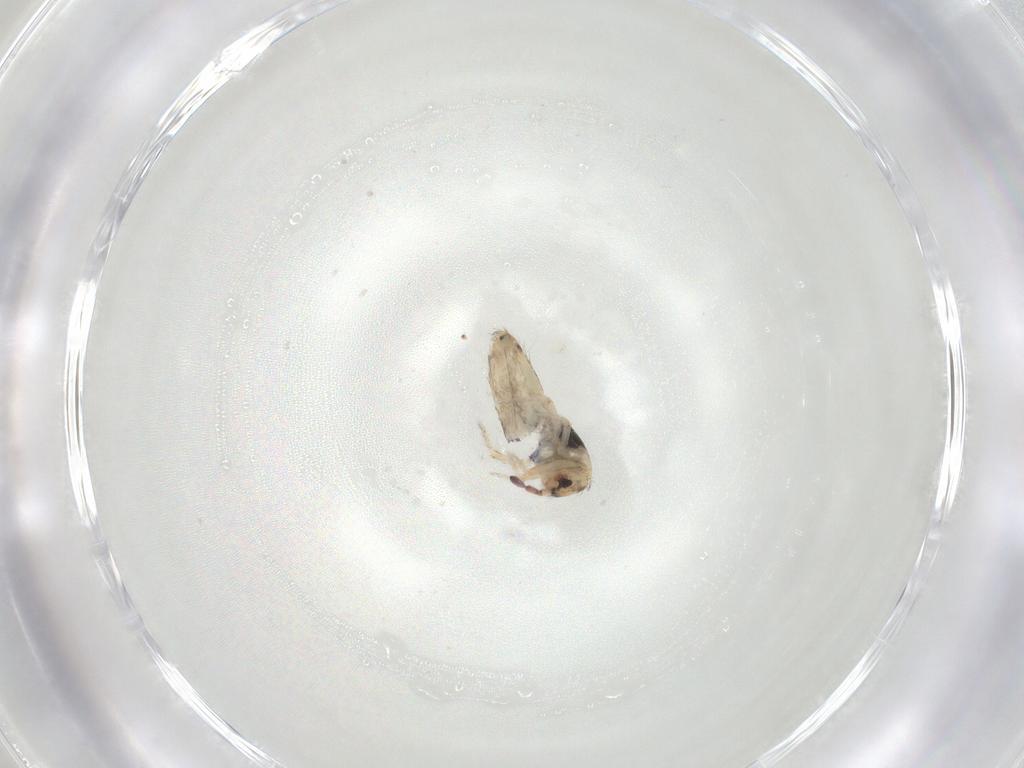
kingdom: Animalia
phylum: Arthropoda
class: Collembola
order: Entomobryomorpha
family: Entomobryidae
